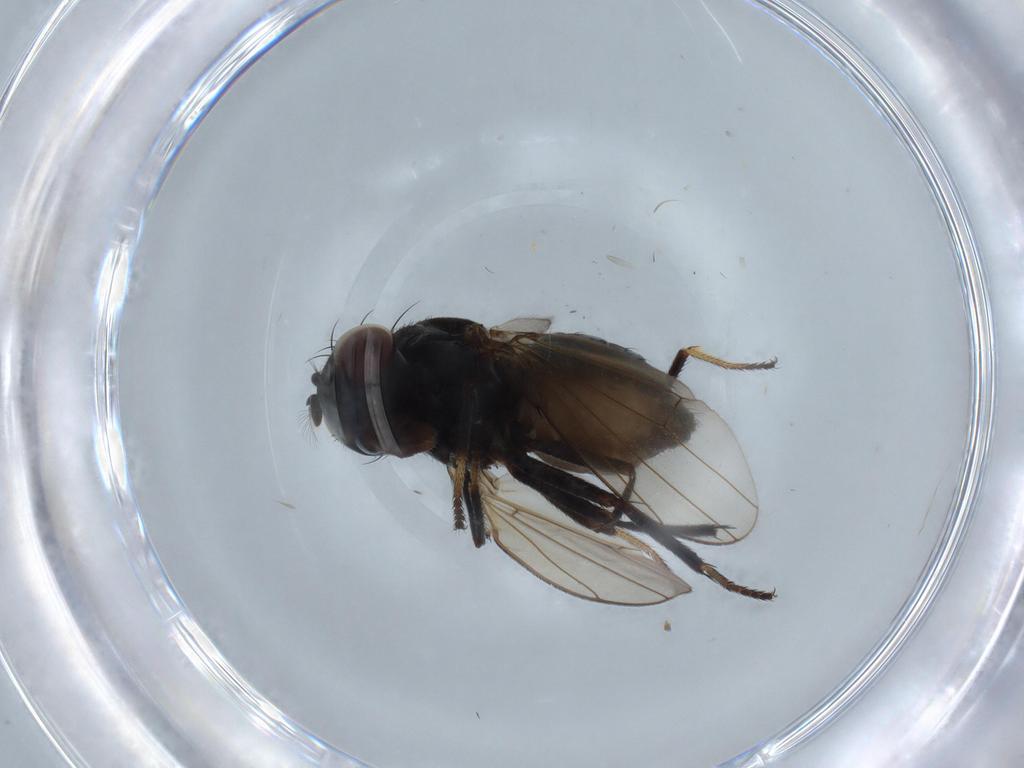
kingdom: Animalia
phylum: Arthropoda
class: Insecta
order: Diptera
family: Ephydridae
